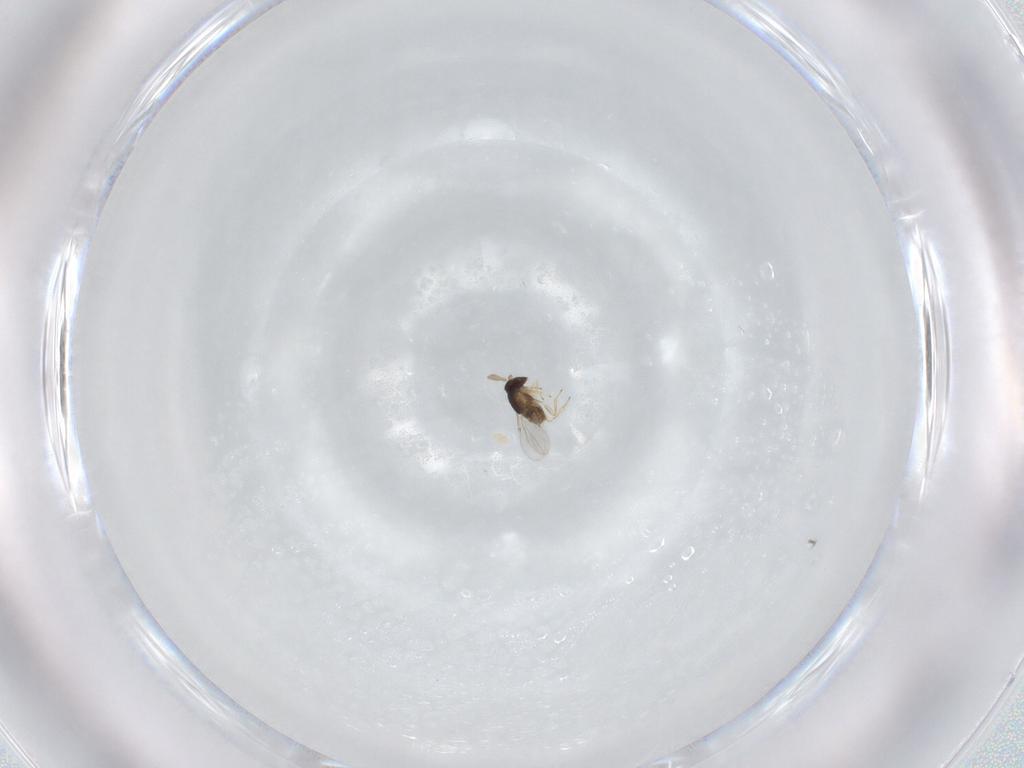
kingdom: Animalia
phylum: Arthropoda
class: Insecta
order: Hymenoptera
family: Encyrtidae
